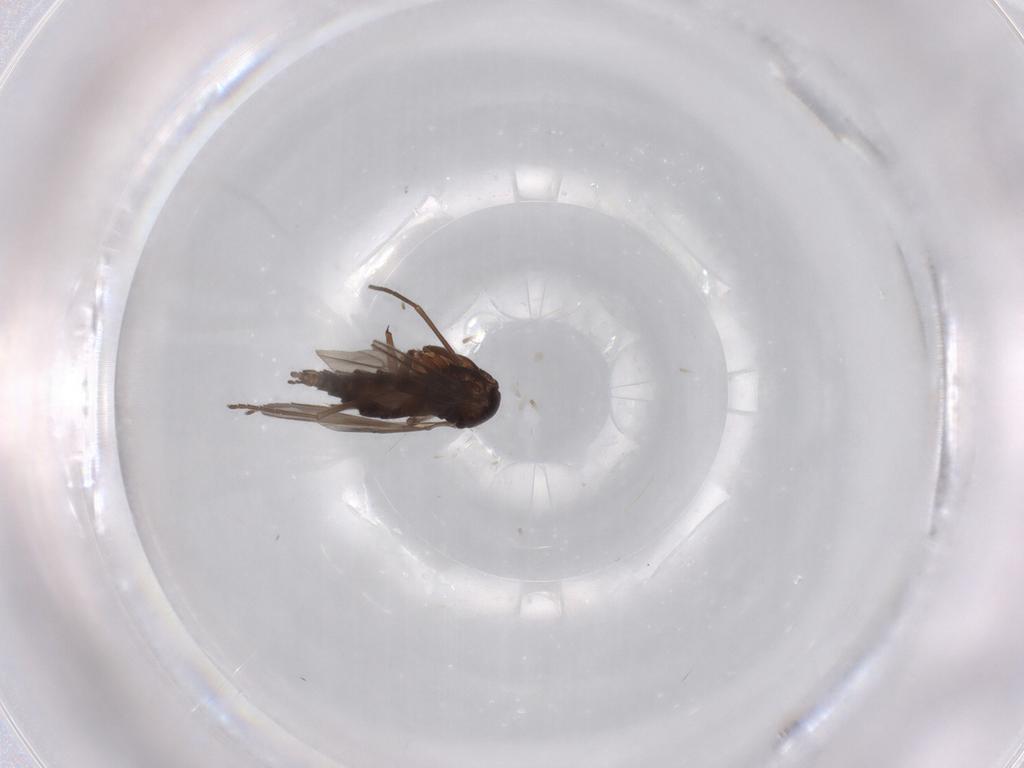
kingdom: Animalia
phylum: Arthropoda
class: Insecta
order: Diptera
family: Sciaridae
